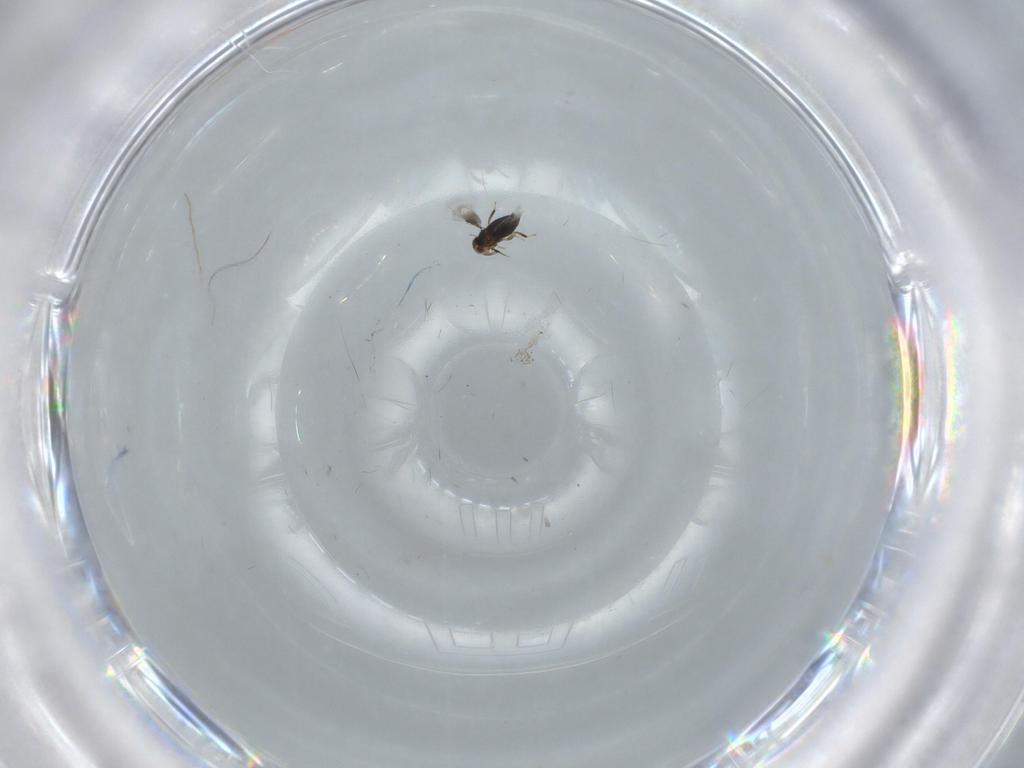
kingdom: Animalia
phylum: Arthropoda
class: Insecta
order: Hymenoptera
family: Signiphoridae
